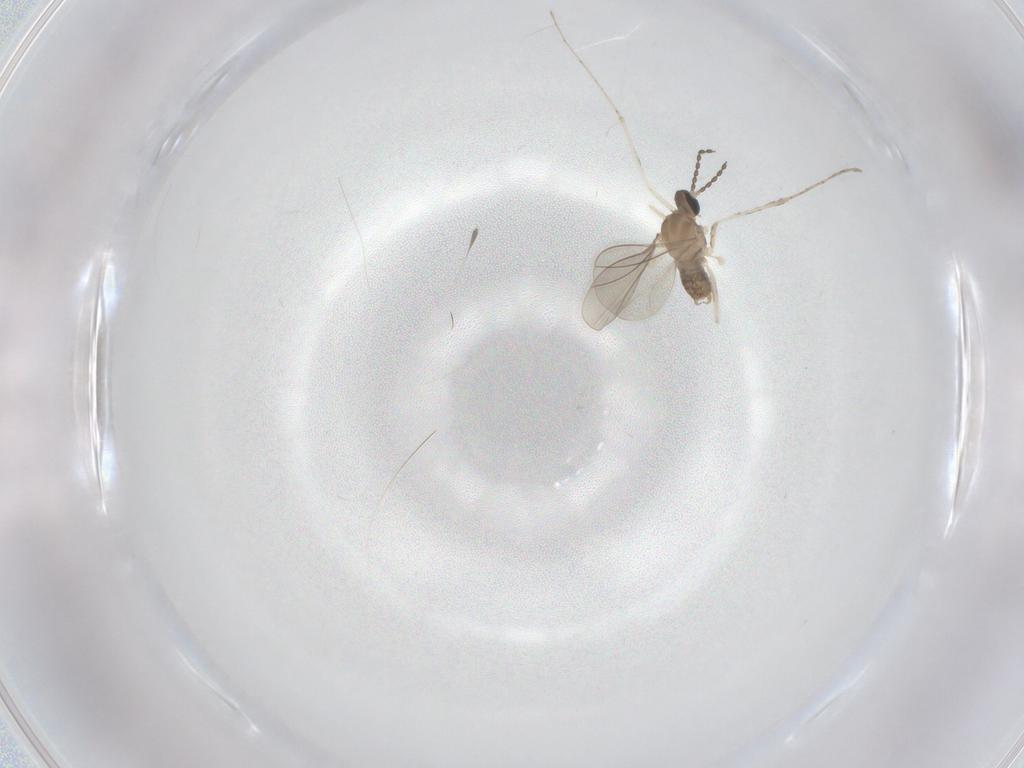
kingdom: Animalia
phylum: Arthropoda
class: Insecta
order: Diptera
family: Cecidomyiidae
